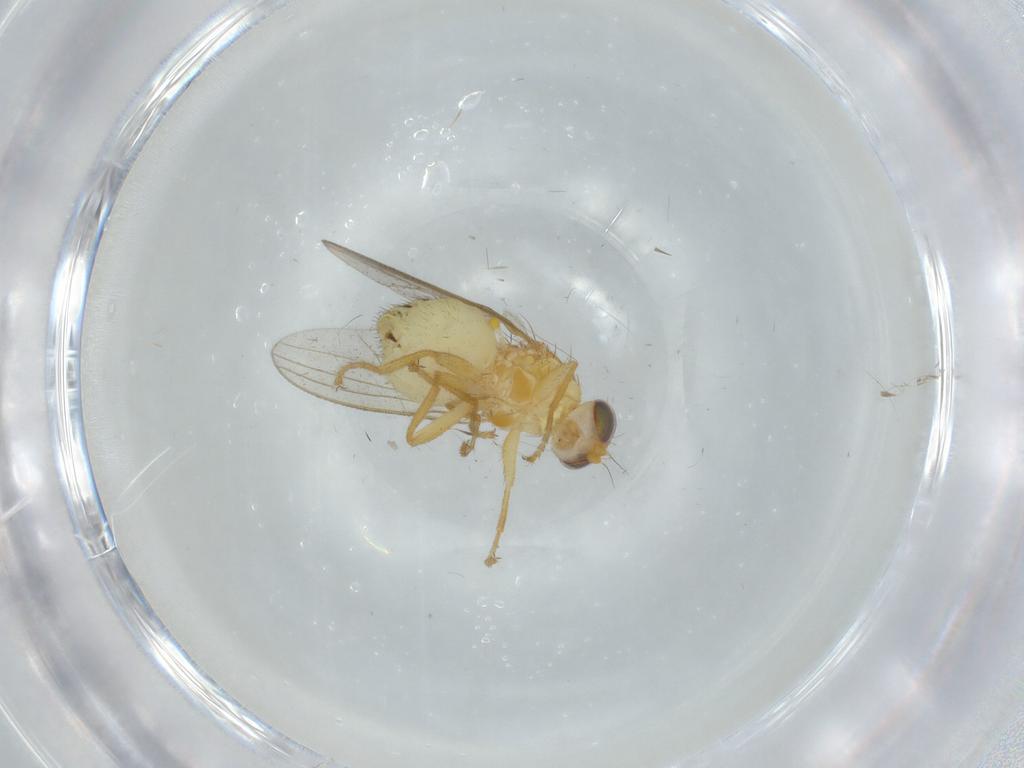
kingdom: Animalia
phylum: Arthropoda
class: Insecta
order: Diptera
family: Chyromyidae
